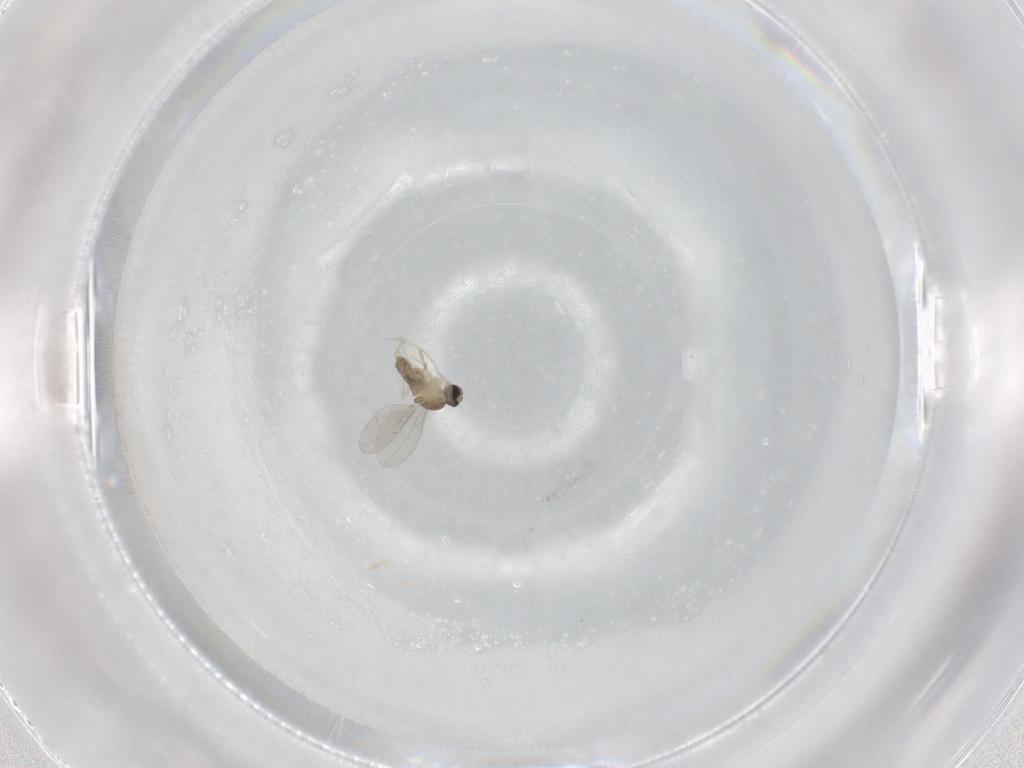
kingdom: Animalia
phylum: Arthropoda
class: Insecta
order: Diptera
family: Cecidomyiidae
